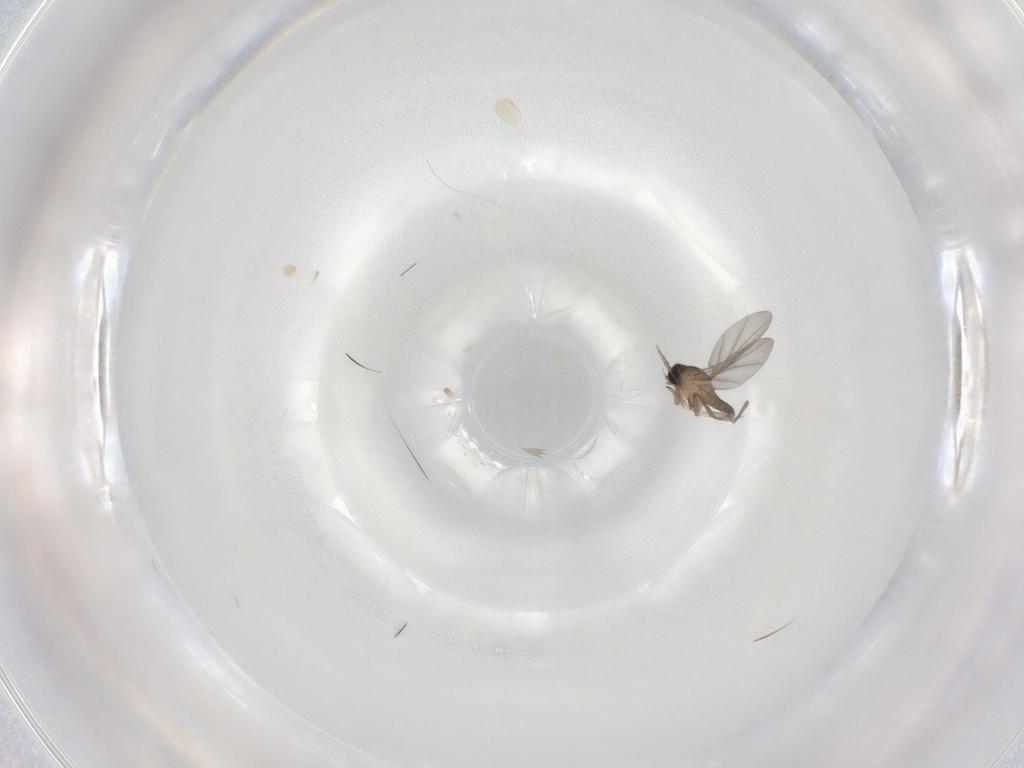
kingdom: Animalia
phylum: Arthropoda
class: Insecta
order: Diptera
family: Phoridae
